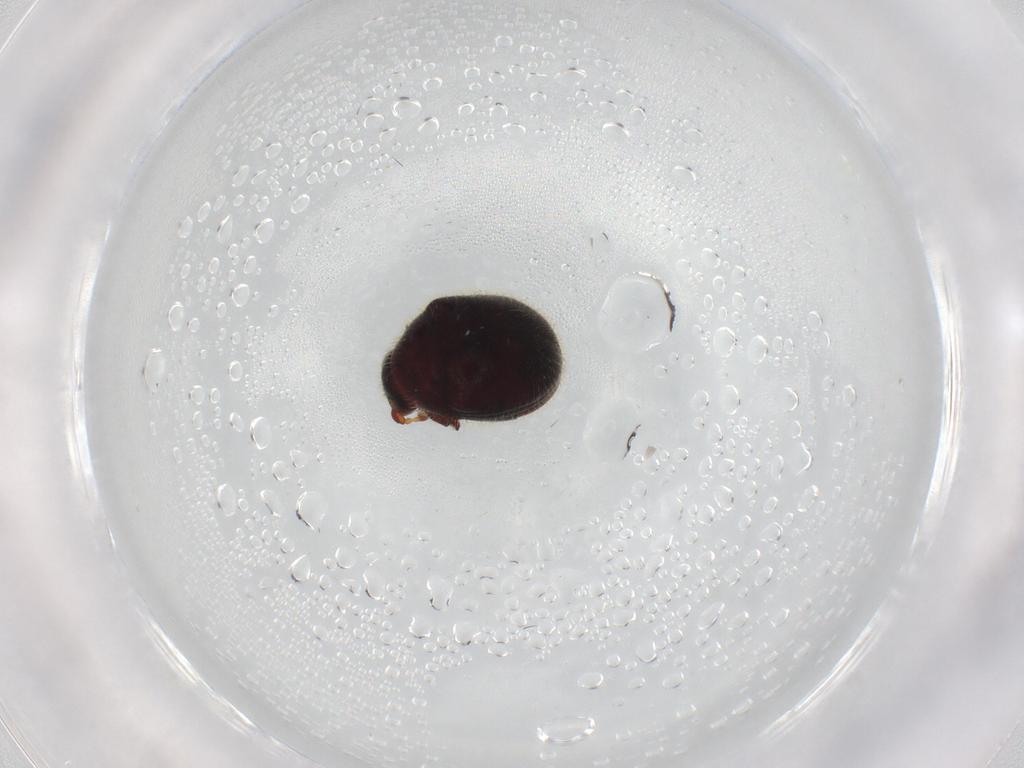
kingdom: Animalia
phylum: Arthropoda
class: Insecta
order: Coleoptera
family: Ptinidae
